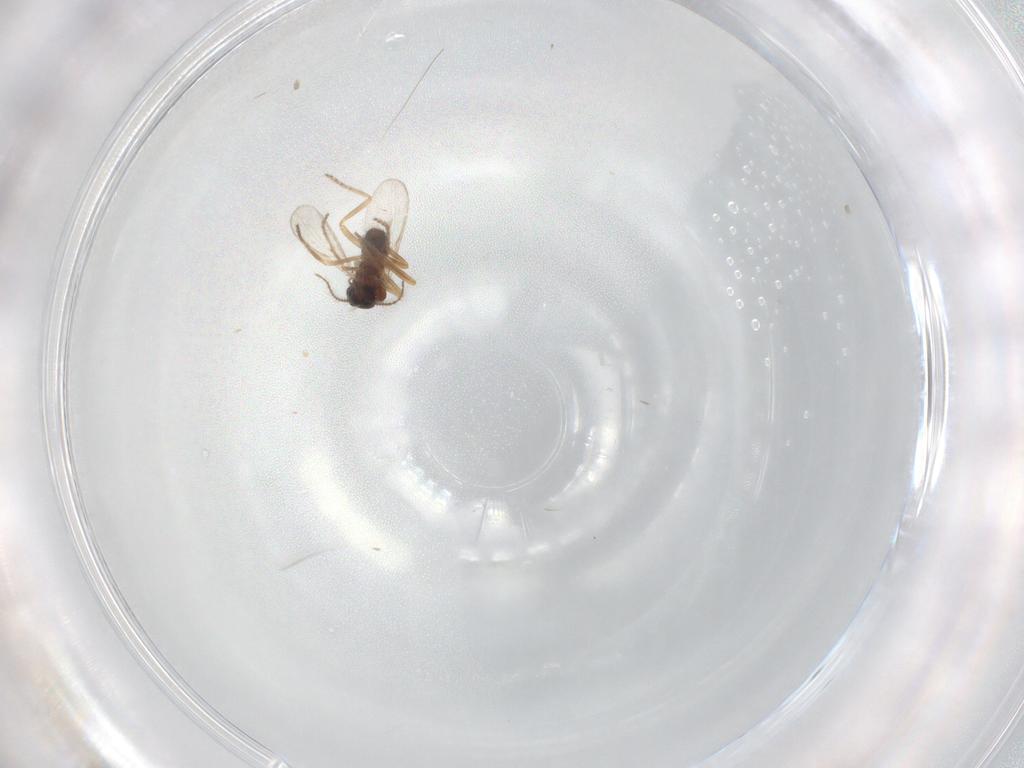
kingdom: Animalia
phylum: Arthropoda
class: Insecta
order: Diptera
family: Ceratopogonidae
